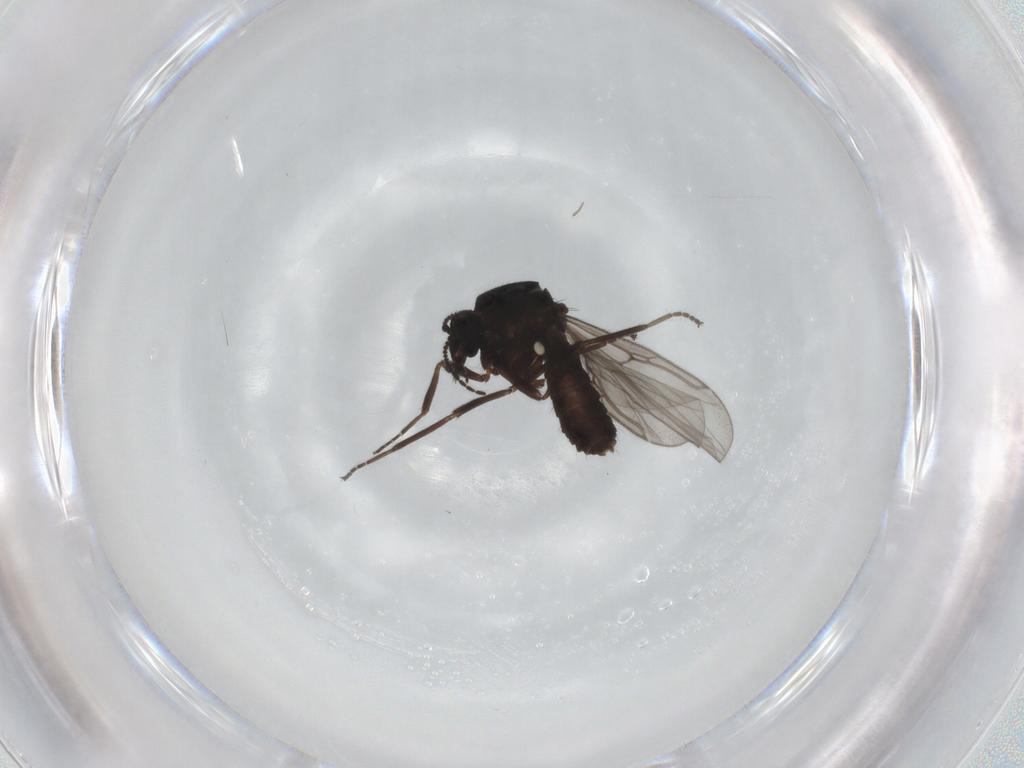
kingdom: Animalia
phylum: Arthropoda
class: Insecta
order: Diptera
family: Ceratopogonidae
